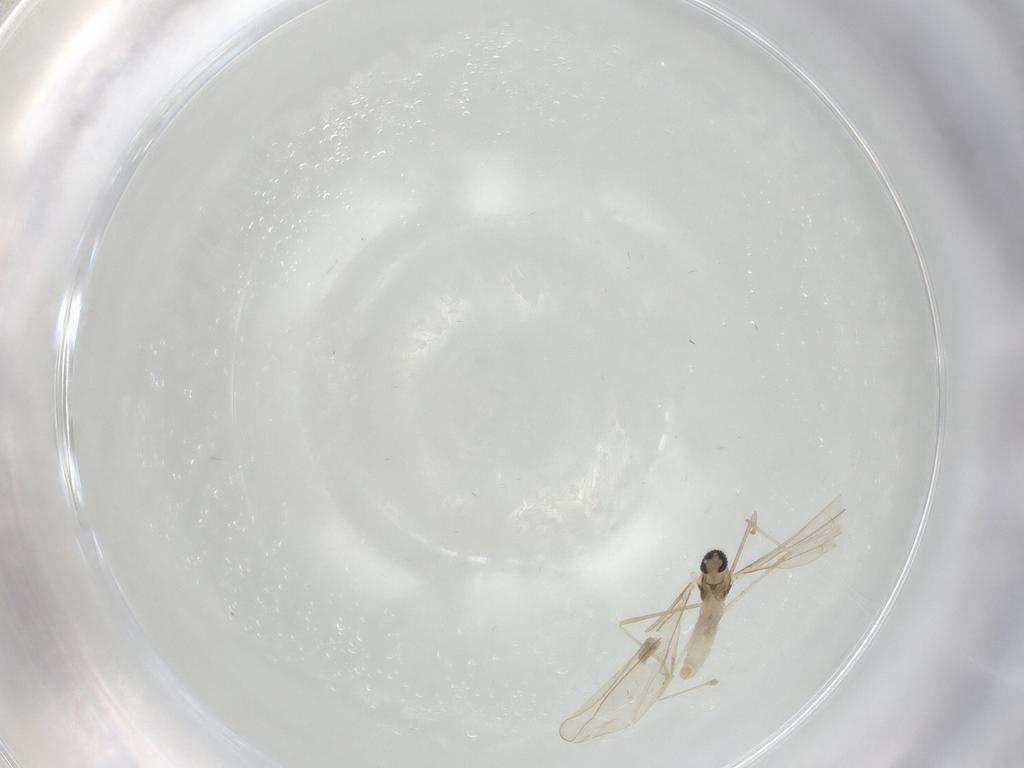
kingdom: Animalia
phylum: Arthropoda
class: Insecta
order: Diptera
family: Cecidomyiidae
